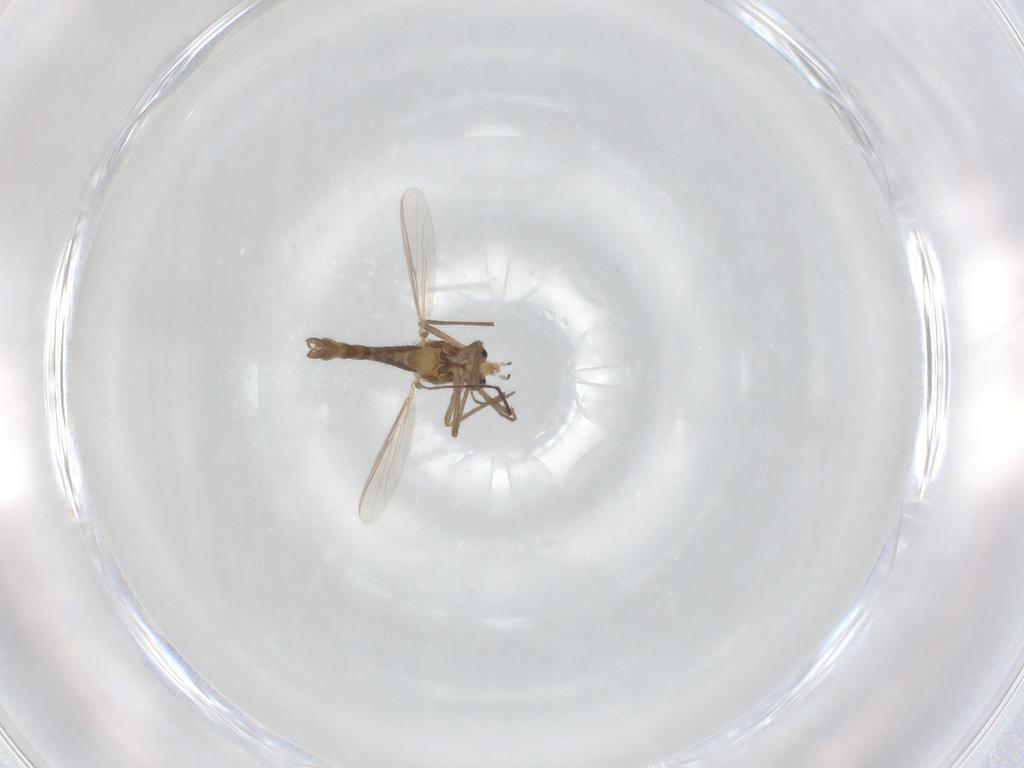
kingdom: Animalia
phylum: Arthropoda
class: Insecta
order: Diptera
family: Chironomidae
